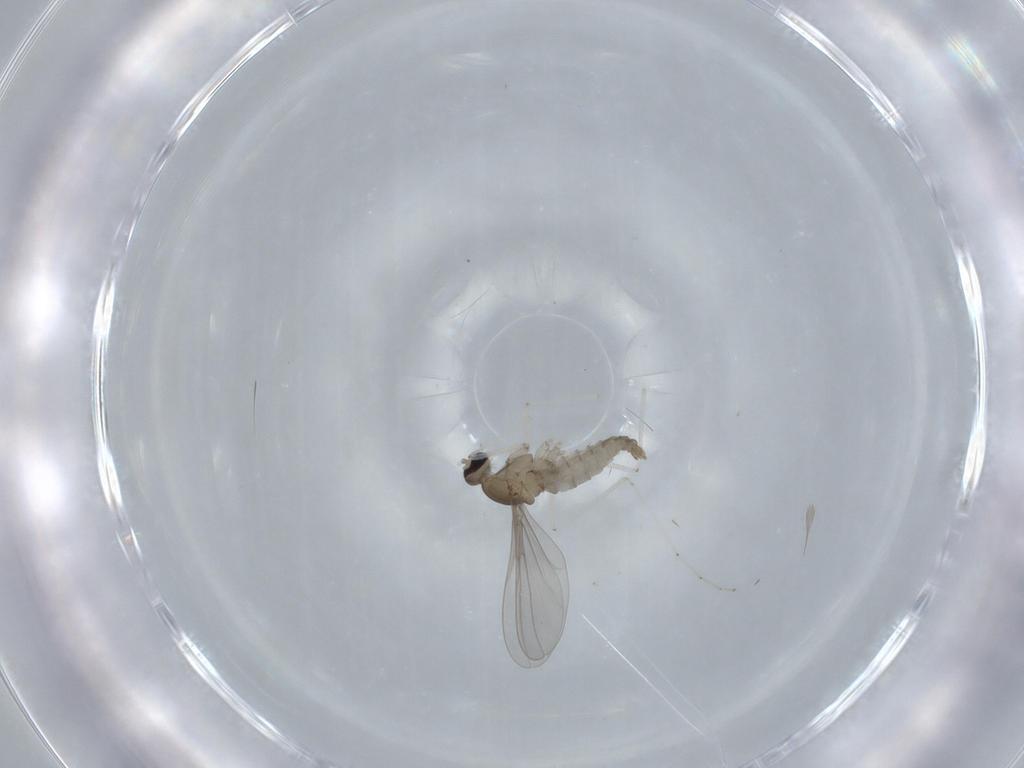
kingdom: Animalia
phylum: Arthropoda
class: Insecta
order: Diptera
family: Cecidomyiidae
